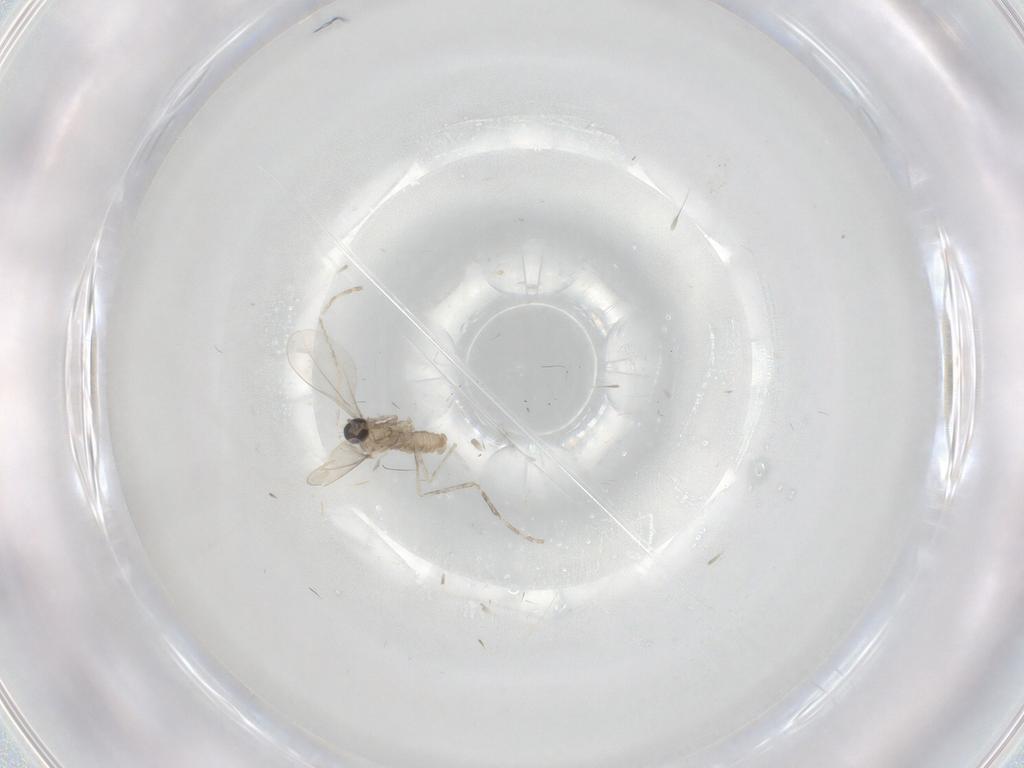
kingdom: Animalia
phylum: Arthropoda
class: Insecta
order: Diptera
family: Cecidomyiidae
